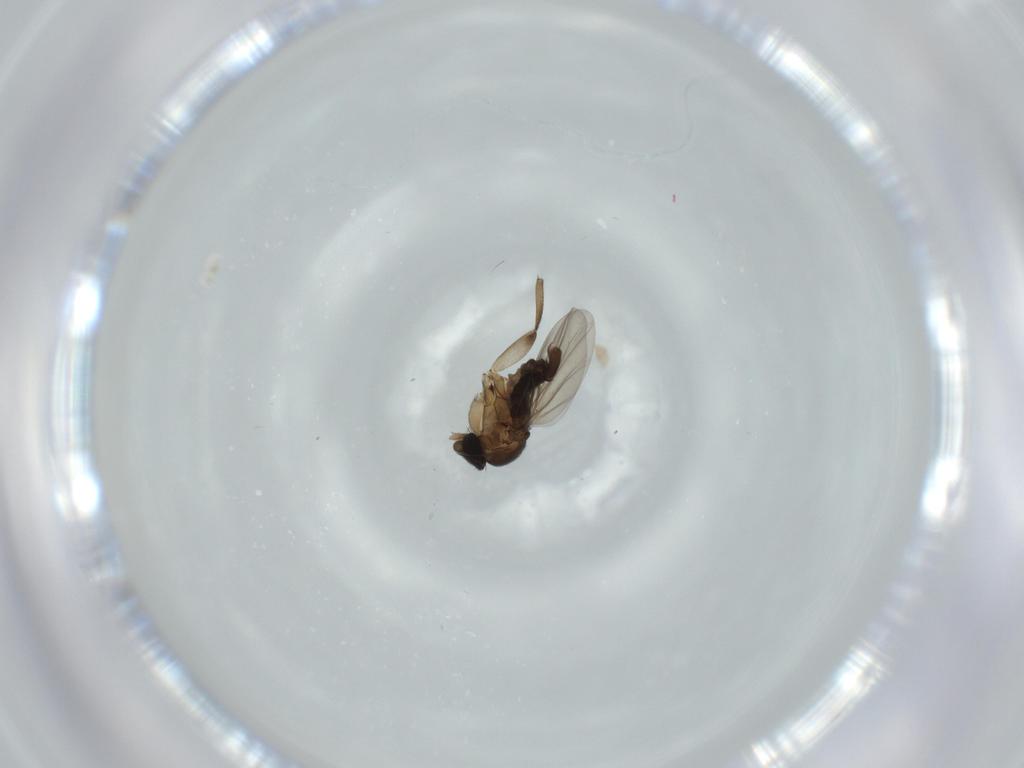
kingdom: Animalia
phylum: Arthropoda
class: Insecta
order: Diptera
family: Phoridae
